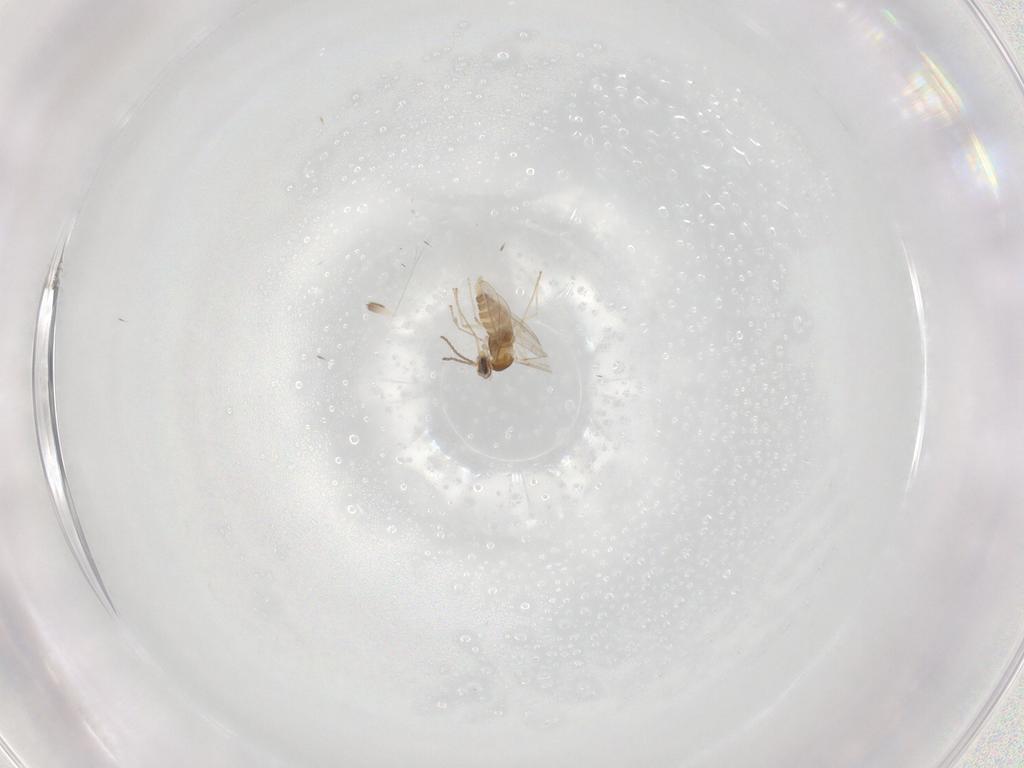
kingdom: Animalia
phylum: Arthropoda
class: Insecta
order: Diptera
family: Cecidomyiidae
